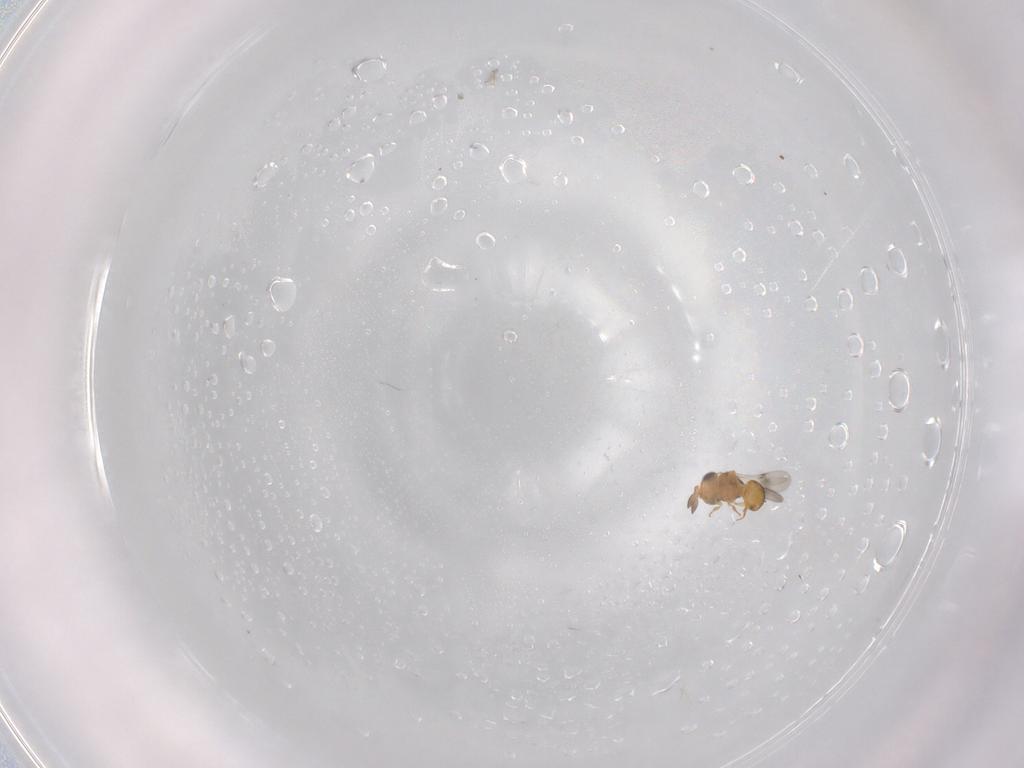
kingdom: Animalia
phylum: Arthropoda
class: Insecta
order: Hymenoptera
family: Scelionidae
